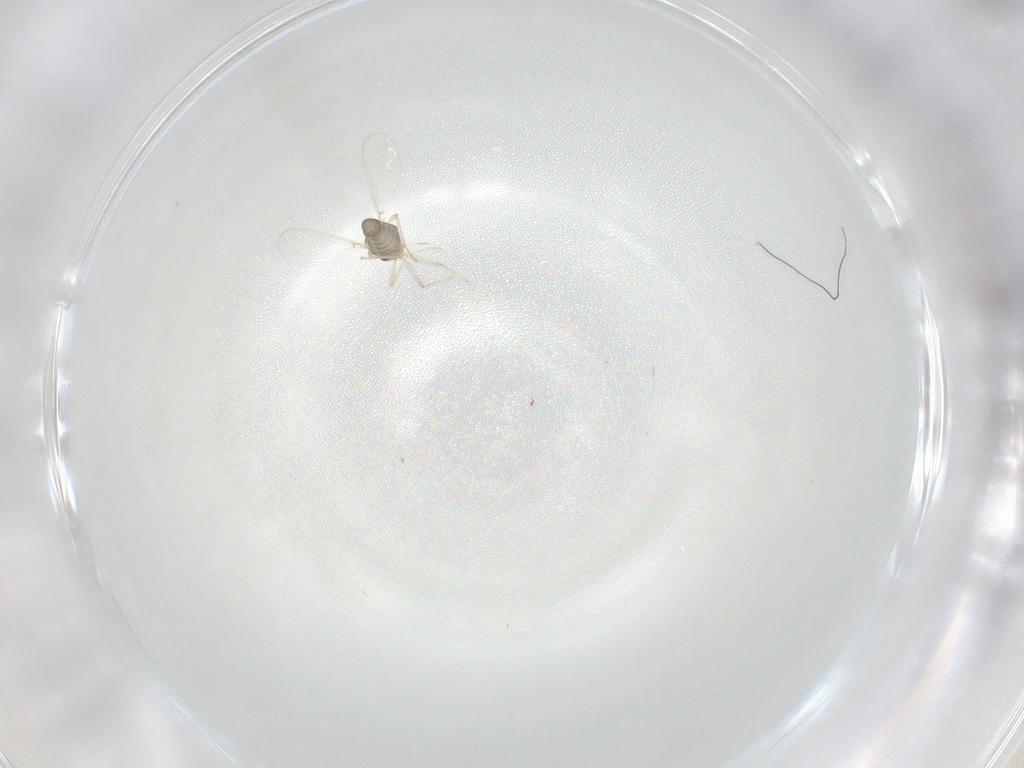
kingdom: Animalia
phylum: Arthropoda
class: Insecta
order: Diptera
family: Chironomidae
